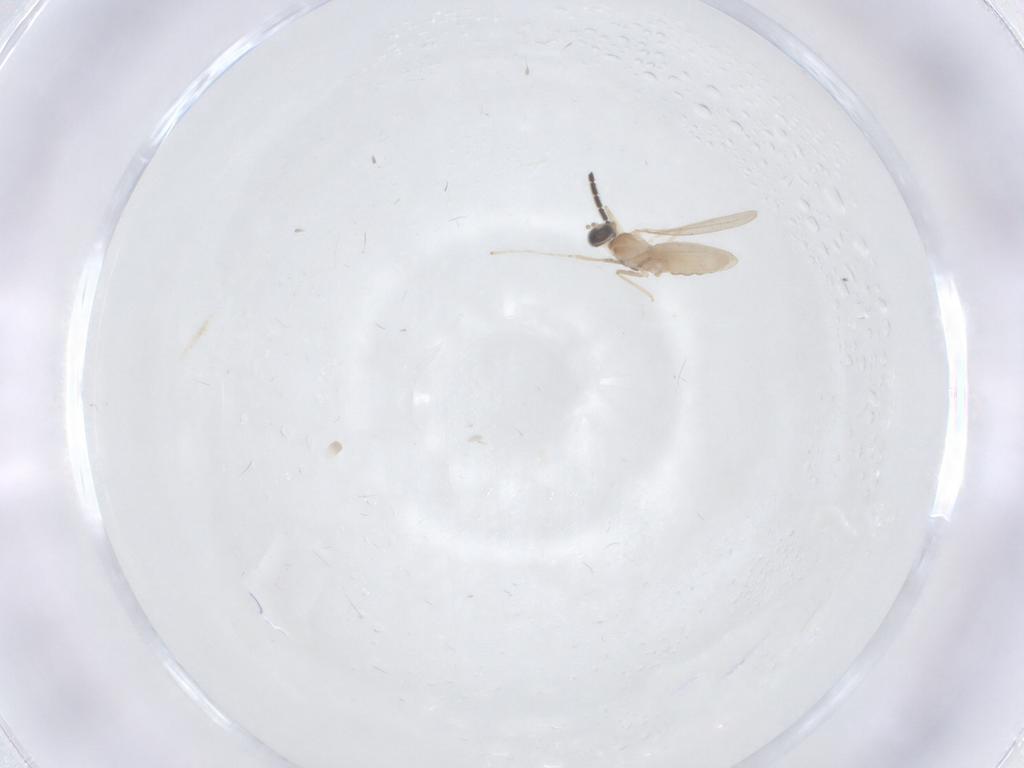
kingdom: Animalia
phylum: Arthropoda
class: Insecta
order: Diptera
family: Cecidomyiidae
